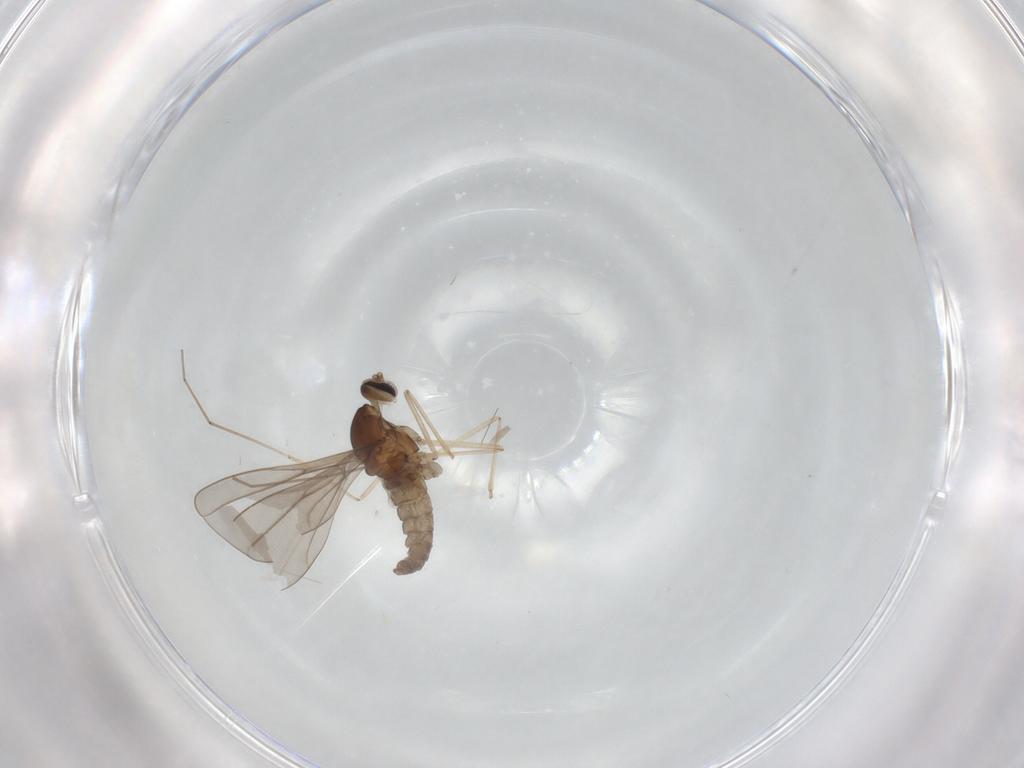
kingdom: Animalia
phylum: Arthropoda
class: Insecta
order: Diptera
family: Cecidomyiidae
